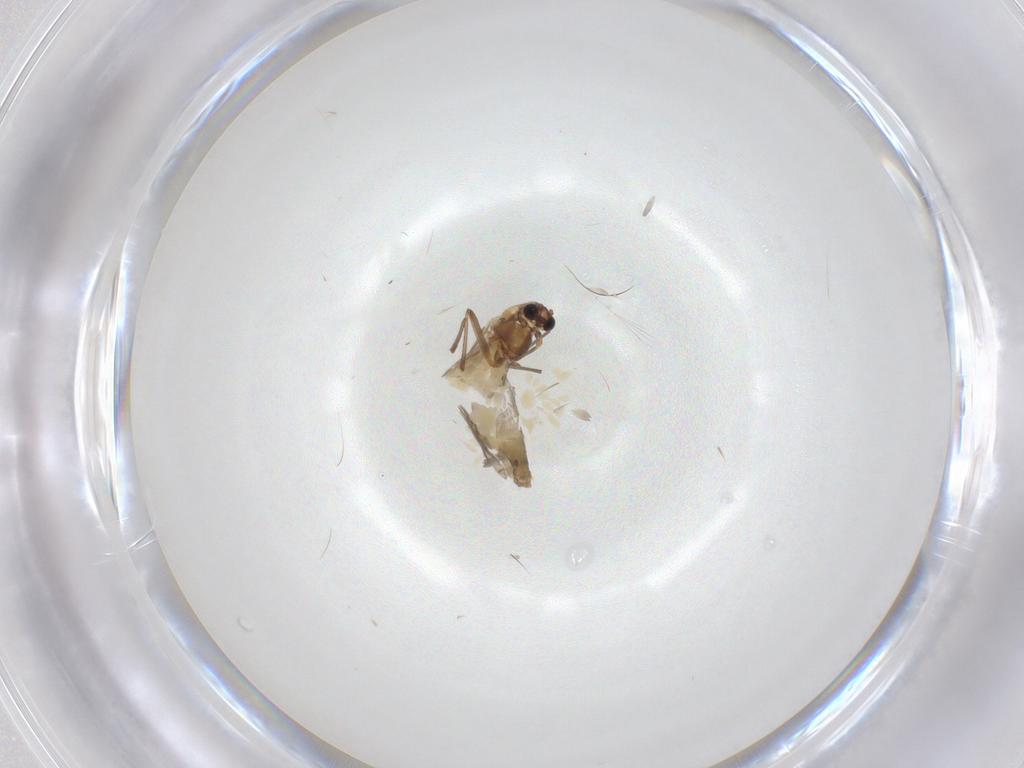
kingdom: Animalia
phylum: Arthropoda
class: Insecta
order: Diptera
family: Chironomidae
